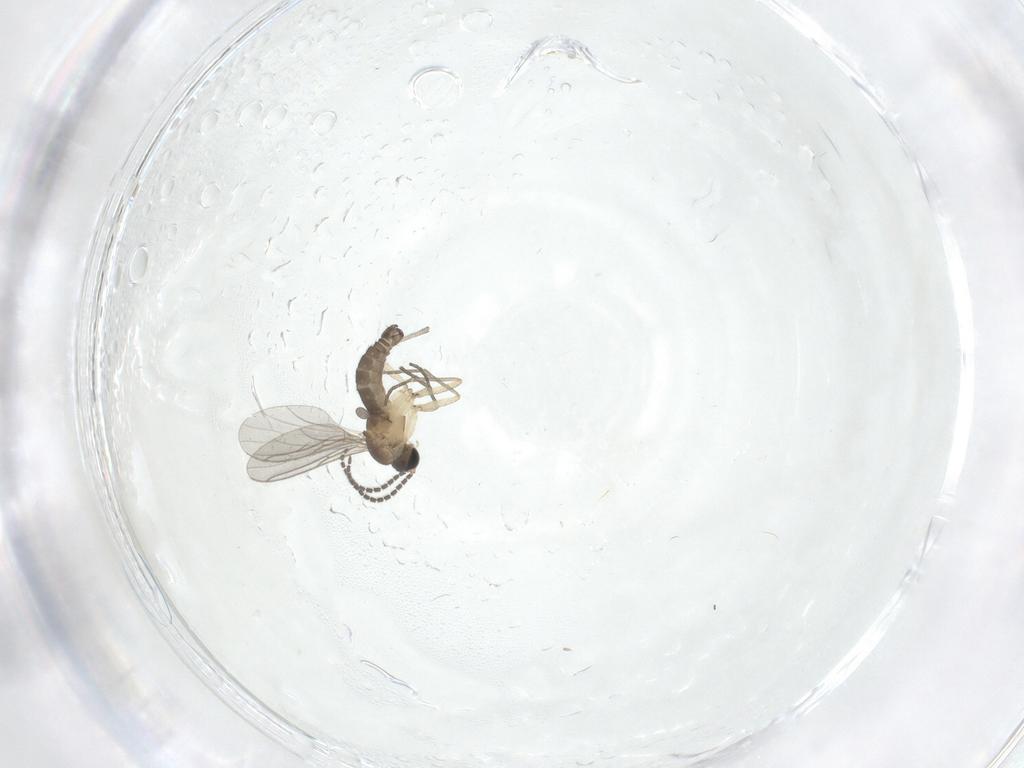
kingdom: Animalia
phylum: Arthropoda
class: Insecta
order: Diptera
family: Sciaridae
